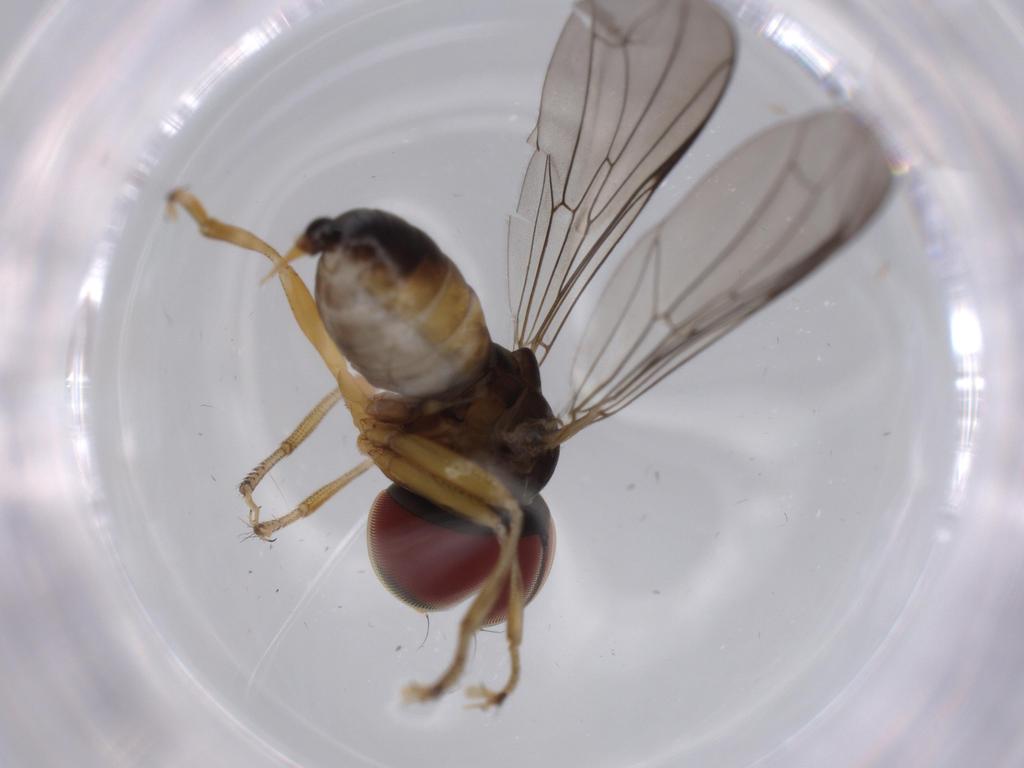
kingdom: Animalia
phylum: Arthropoda
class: Insecta
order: Diptera
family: Pipunculidae
